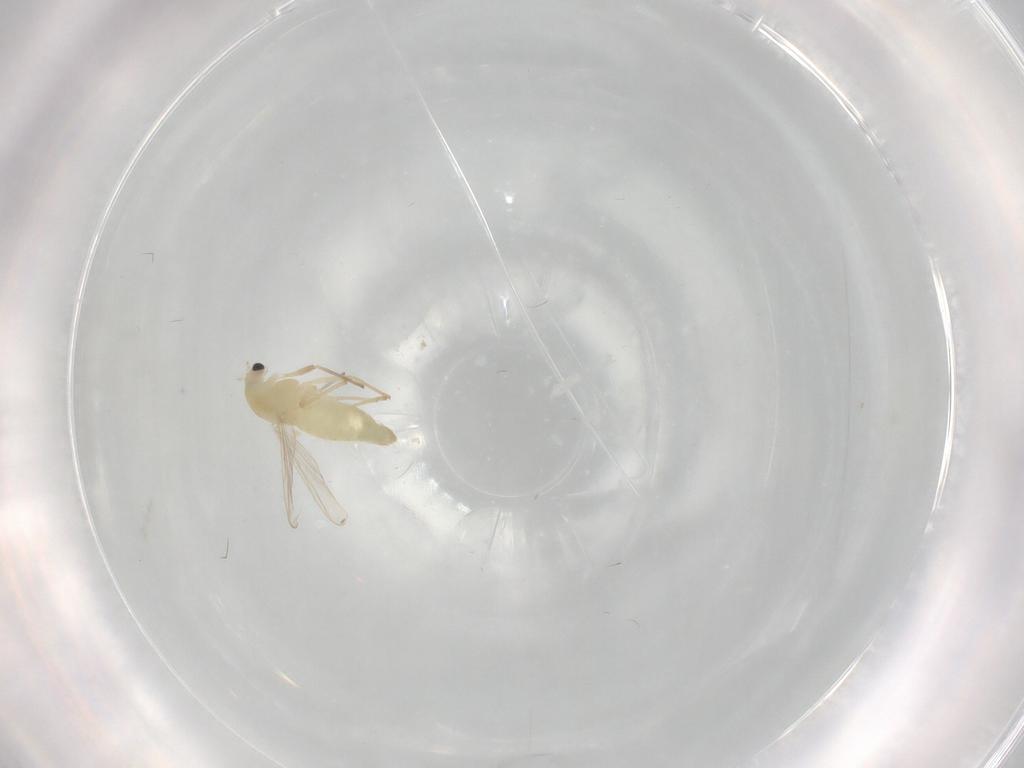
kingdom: Animalia
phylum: Arthropoda
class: Insecta
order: Diptera
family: Chironomidae
